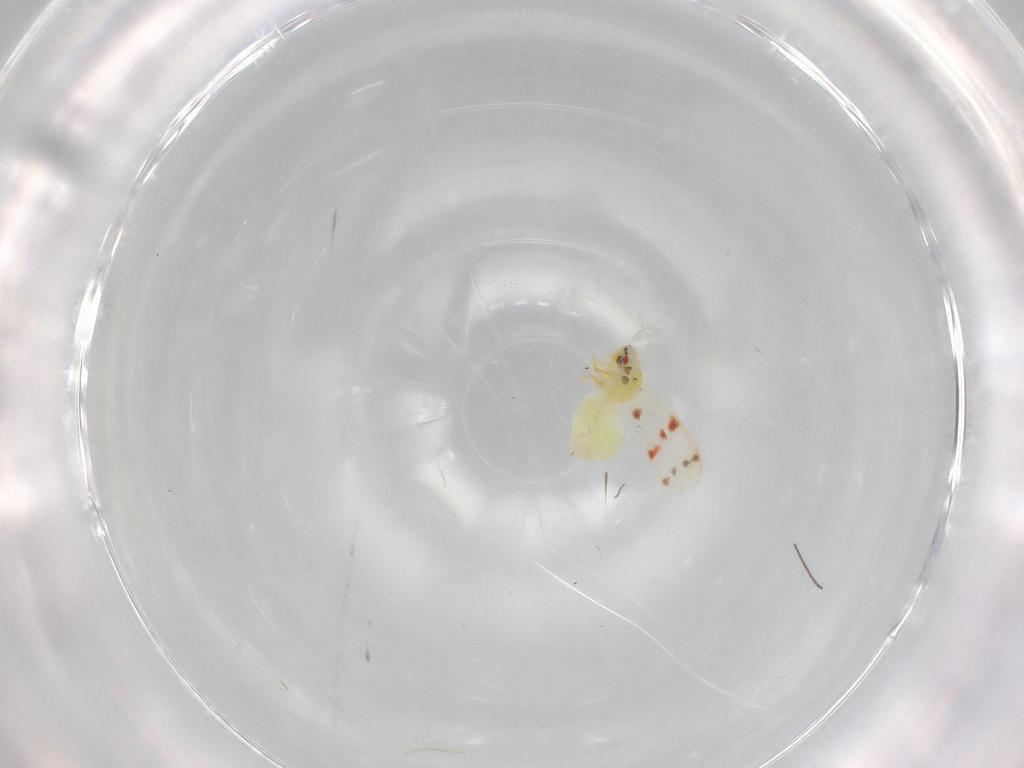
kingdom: Animalia
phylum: Arthropoda
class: Insecta
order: Hemiptera
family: Aleyrodidae
